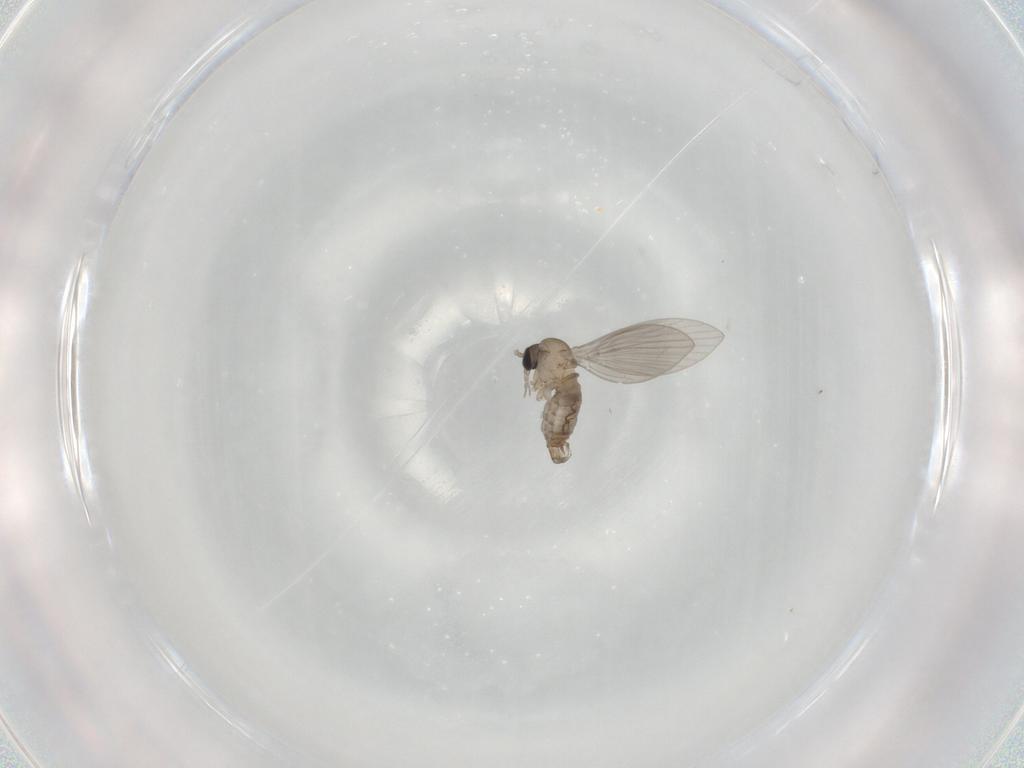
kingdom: Animalia
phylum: Arthropoda
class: Insecta
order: Diptera
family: Psychodidae
